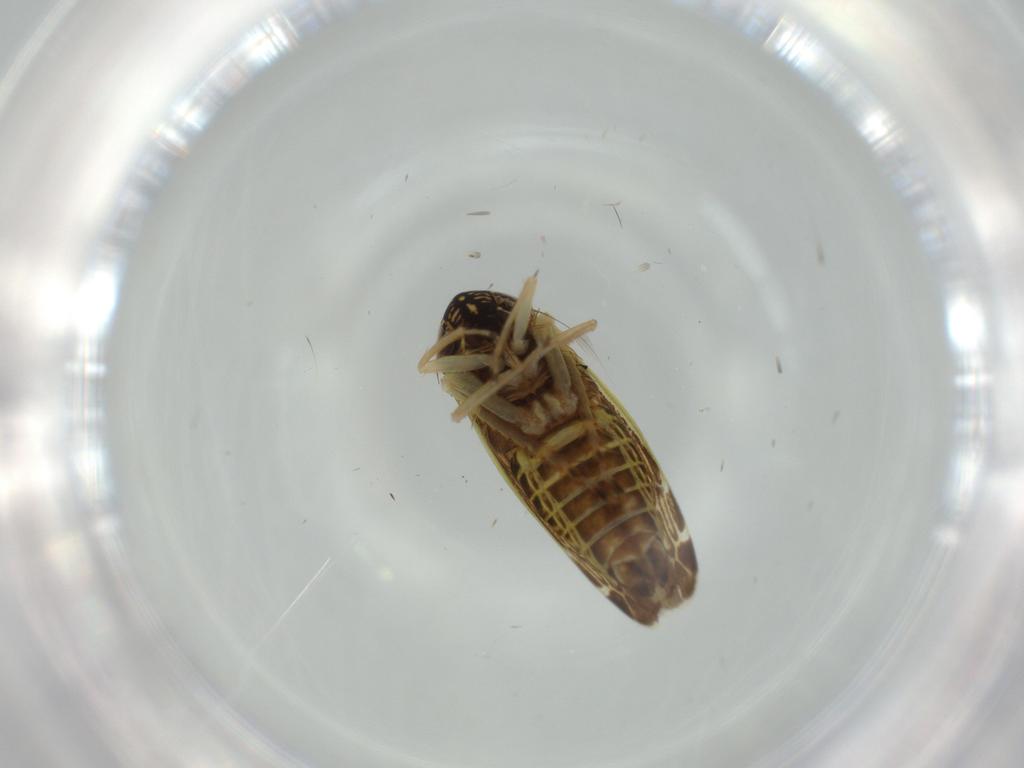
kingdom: Animalia
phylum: Arthropoda
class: Insecta
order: Hemiptera
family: Cicadellidae
